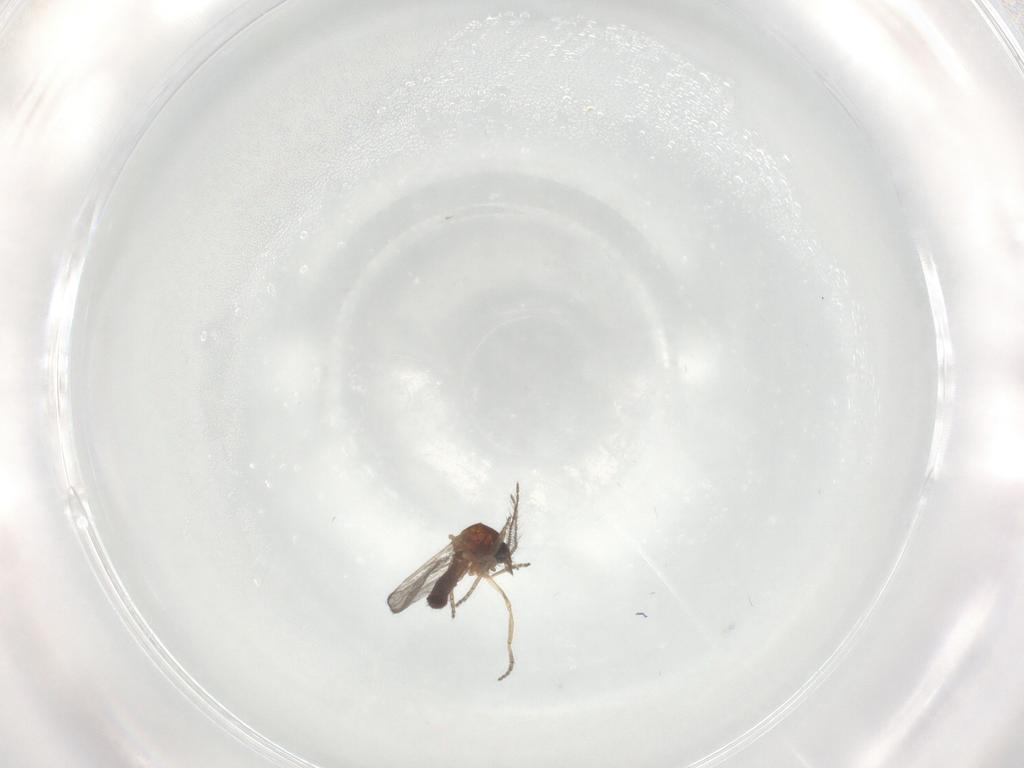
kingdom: Animalia
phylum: Arthropoda
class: Insecta
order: Diptera
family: Ceratopogonidae
